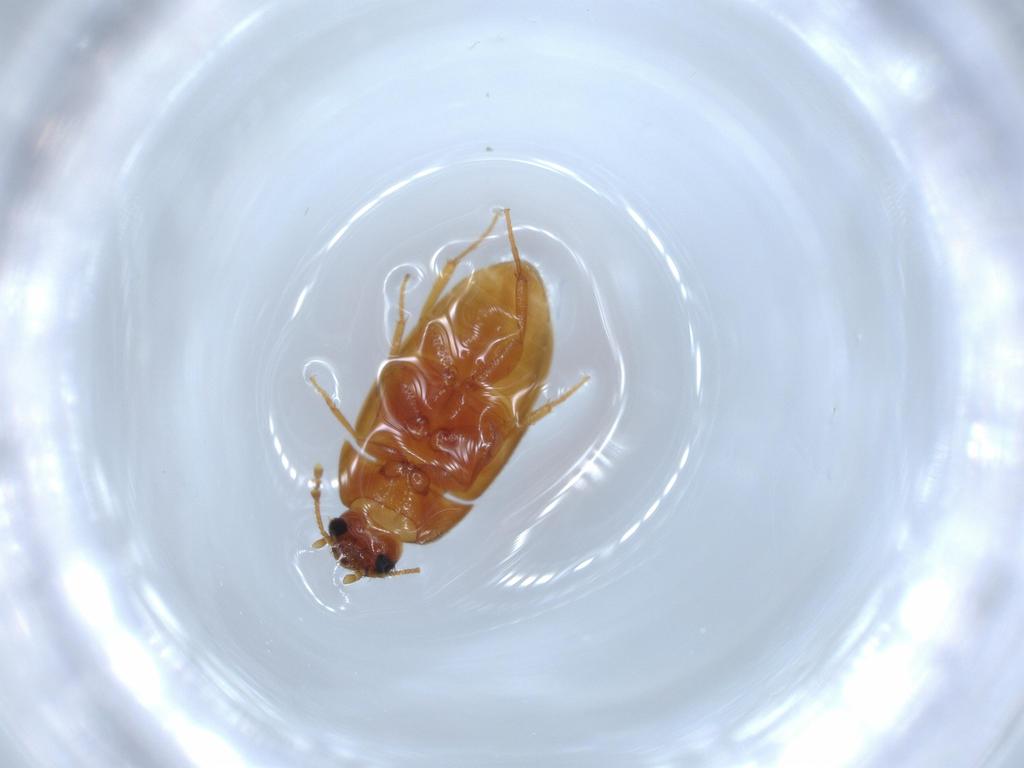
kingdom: Animalia
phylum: Arthropoda
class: Insecta
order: Coleoptera
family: Mycetophagidae
